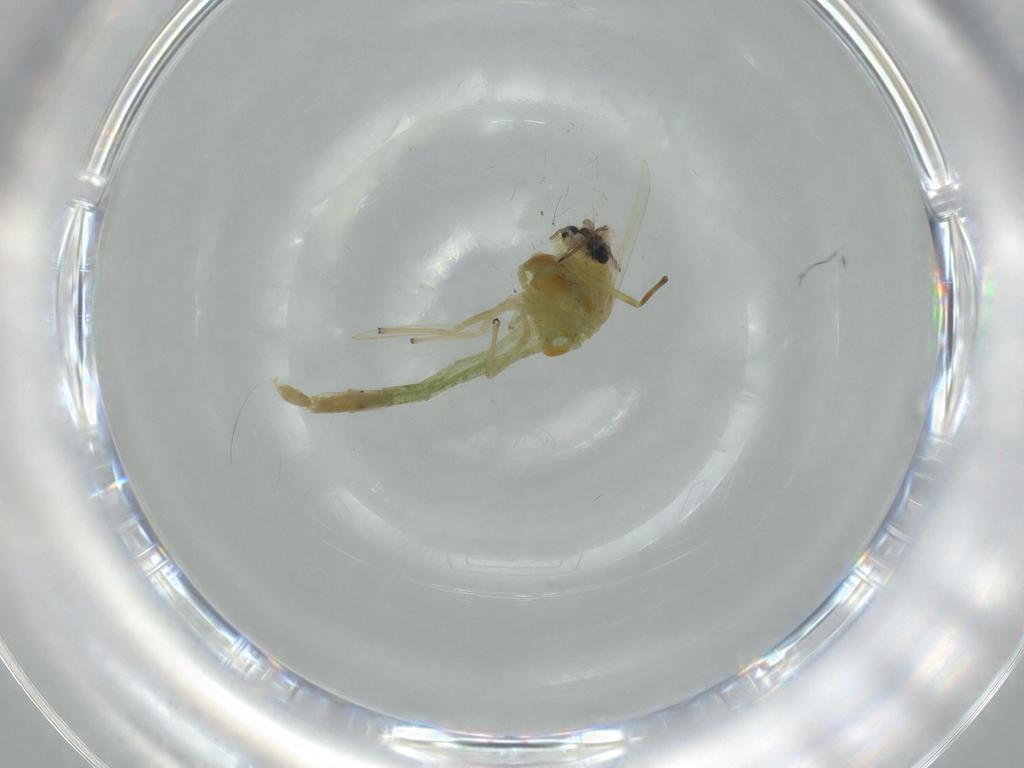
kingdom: Animalia
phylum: Arthropoda
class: Insecta
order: Diptera
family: Chironomidae
